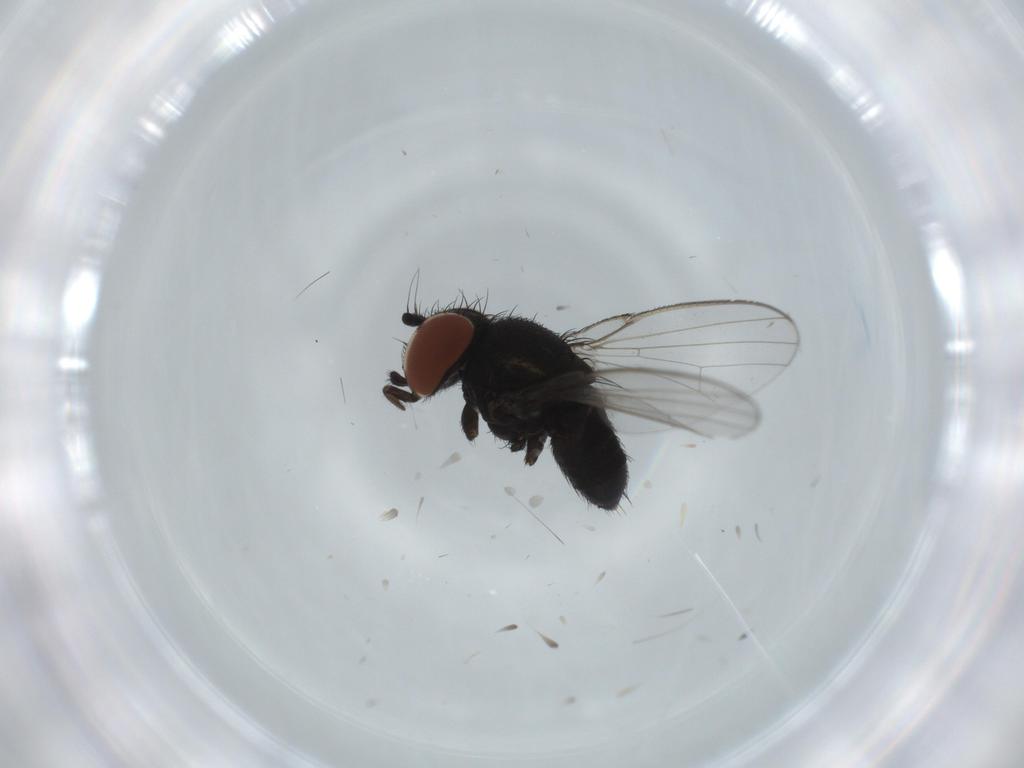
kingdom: Animalia
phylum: Arthropoda
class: Insecta
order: Diptera
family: Milichiidae
